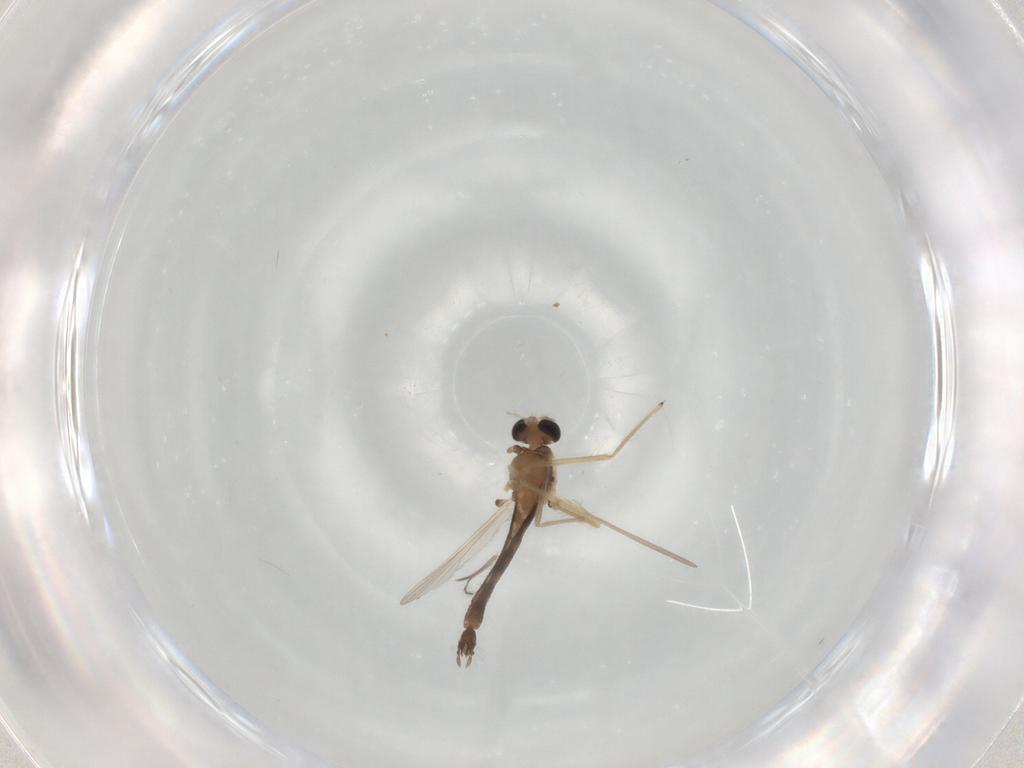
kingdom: Animalia
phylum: Arthropoda
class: Insecta
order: Diptera
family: Chironomidae
